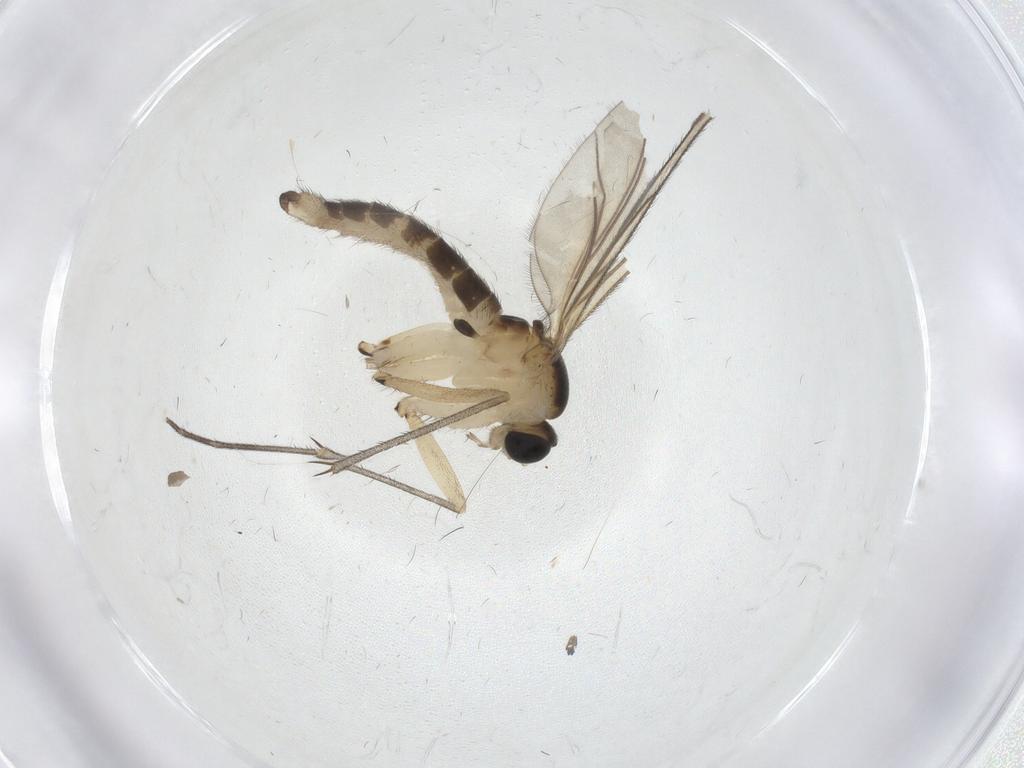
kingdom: Animalia
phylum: Arthropoda
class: Insecta
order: Diptera
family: Sciaridae
